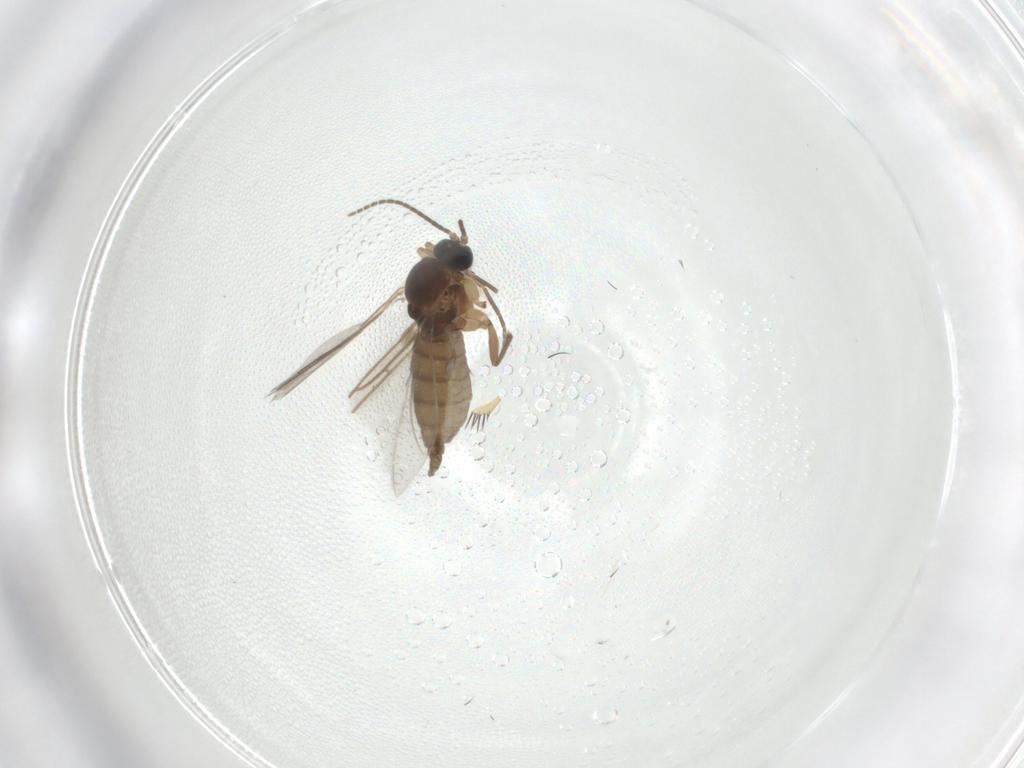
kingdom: Animalia
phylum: Arthropoda
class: Insecta
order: Diptera
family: Sciaridae
